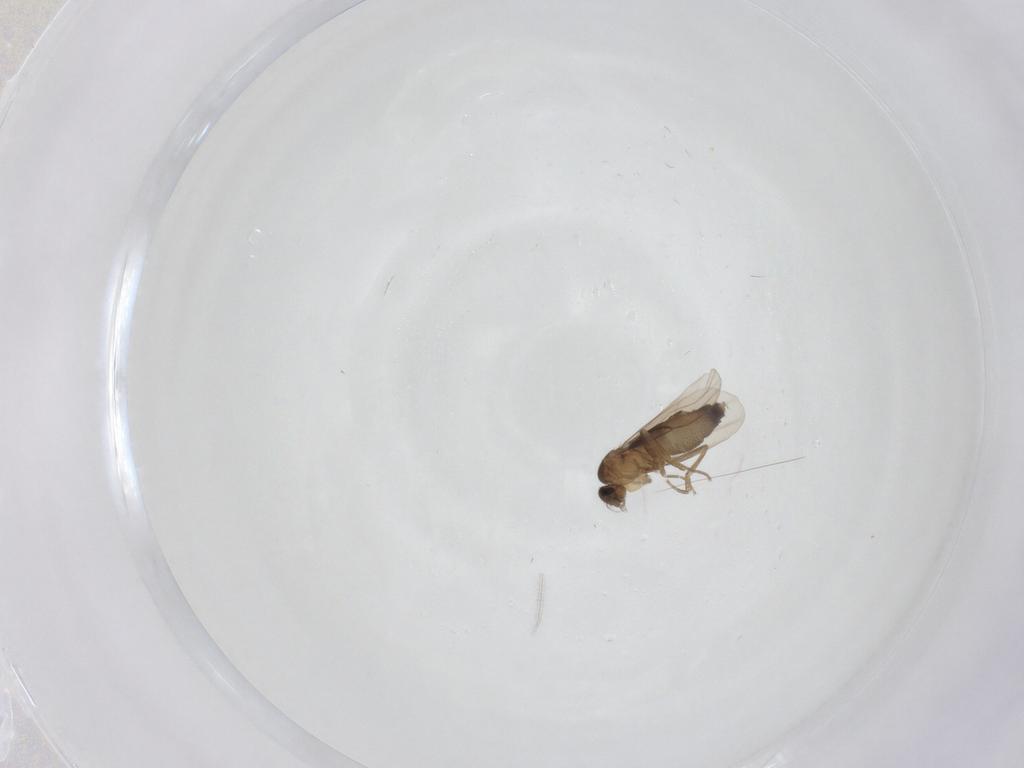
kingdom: Animalia
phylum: Arthropoda
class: Insecta
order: Diptera
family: Phoridae
